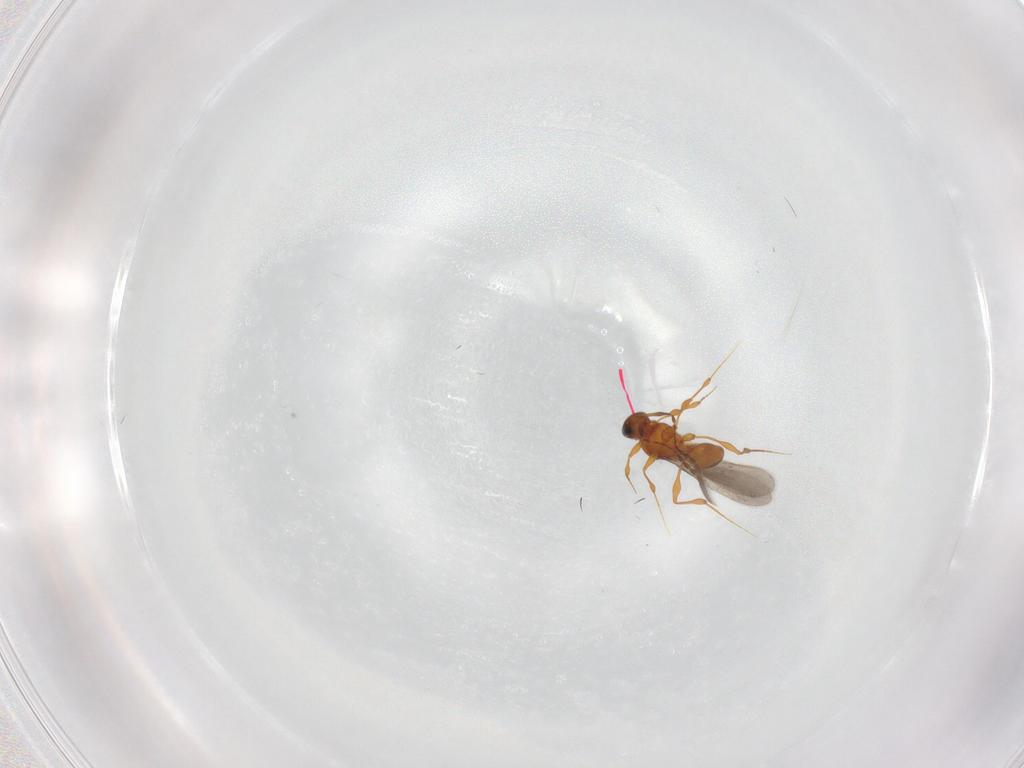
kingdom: Animalia
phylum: Arthropoda
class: Insecta
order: Hymenoptera
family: Platygastridae
